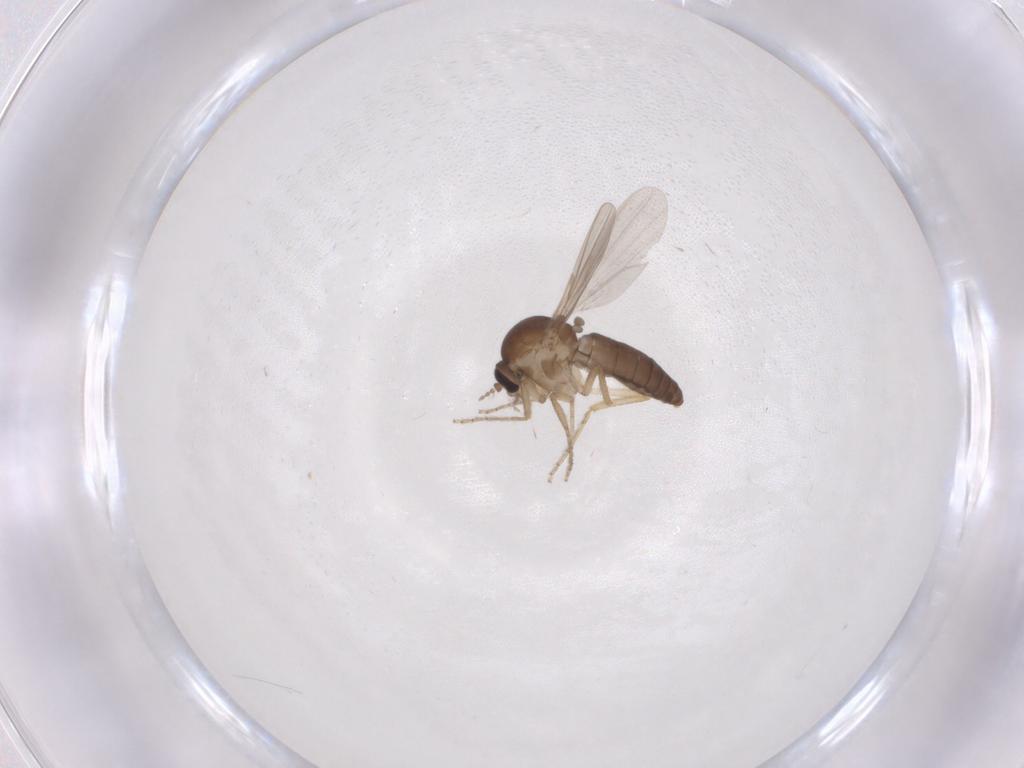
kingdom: Animalia
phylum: Arthropoda
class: Insecta
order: Diptera
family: Ceratopogonidae
